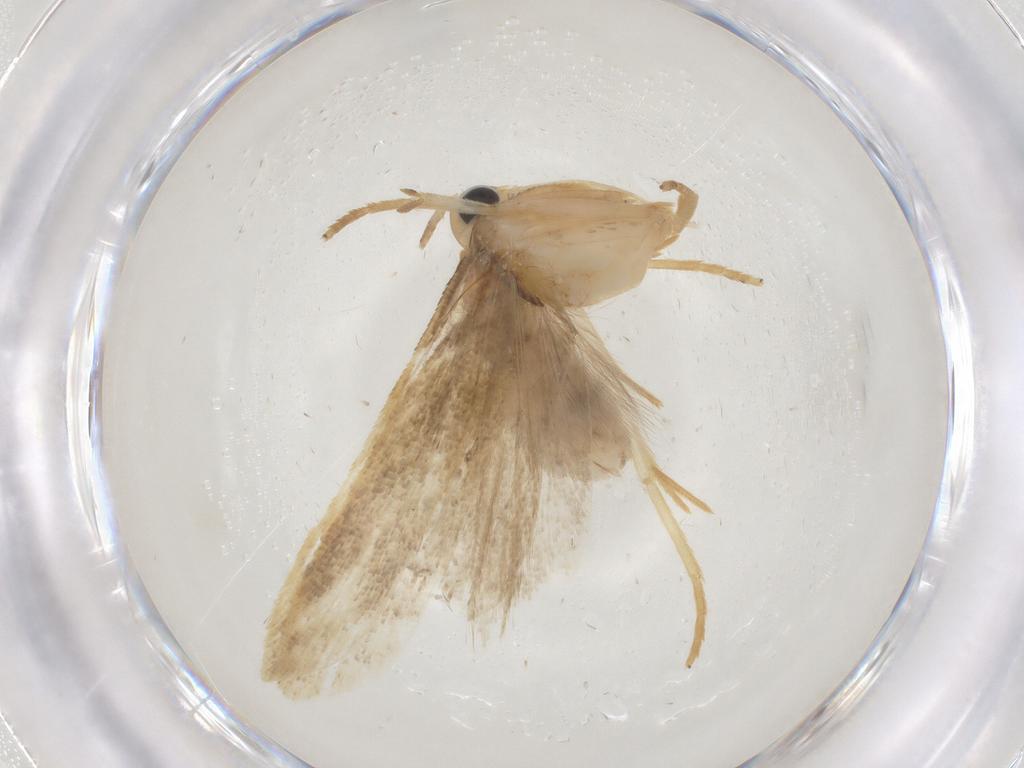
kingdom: Animalia
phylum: Arthropoda
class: Insecta
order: Lepidoptera
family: Gelechiidae
